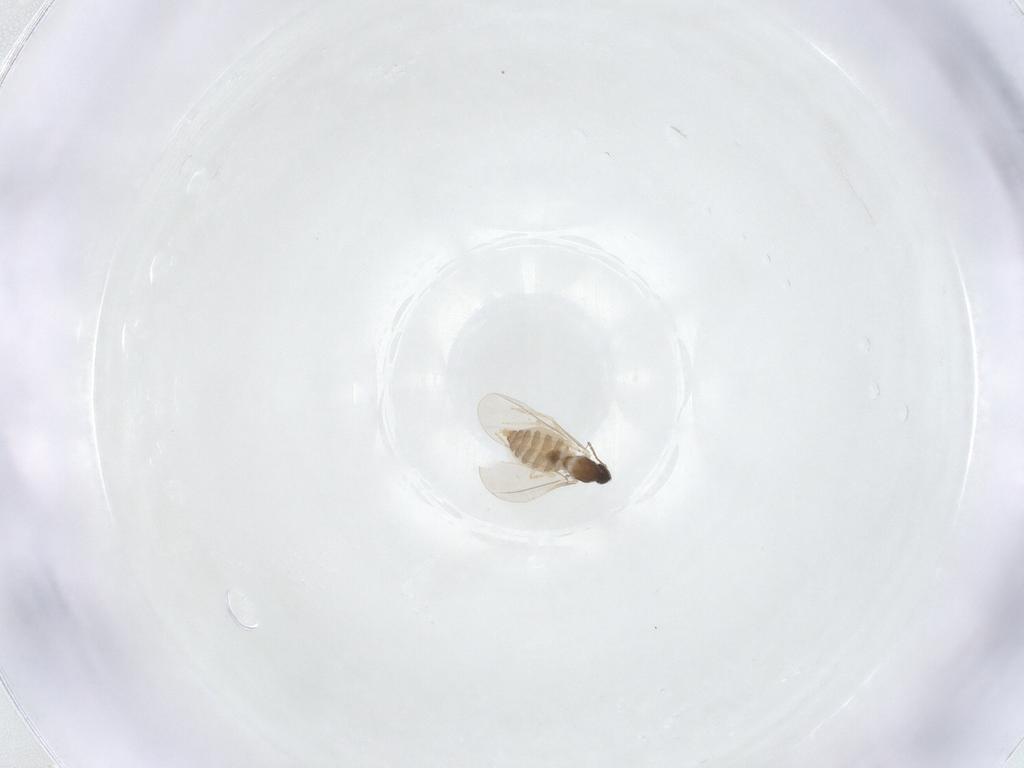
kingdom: Animalia
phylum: Arthropoda
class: Insecta
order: Diptera
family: Cecidomyiidae
